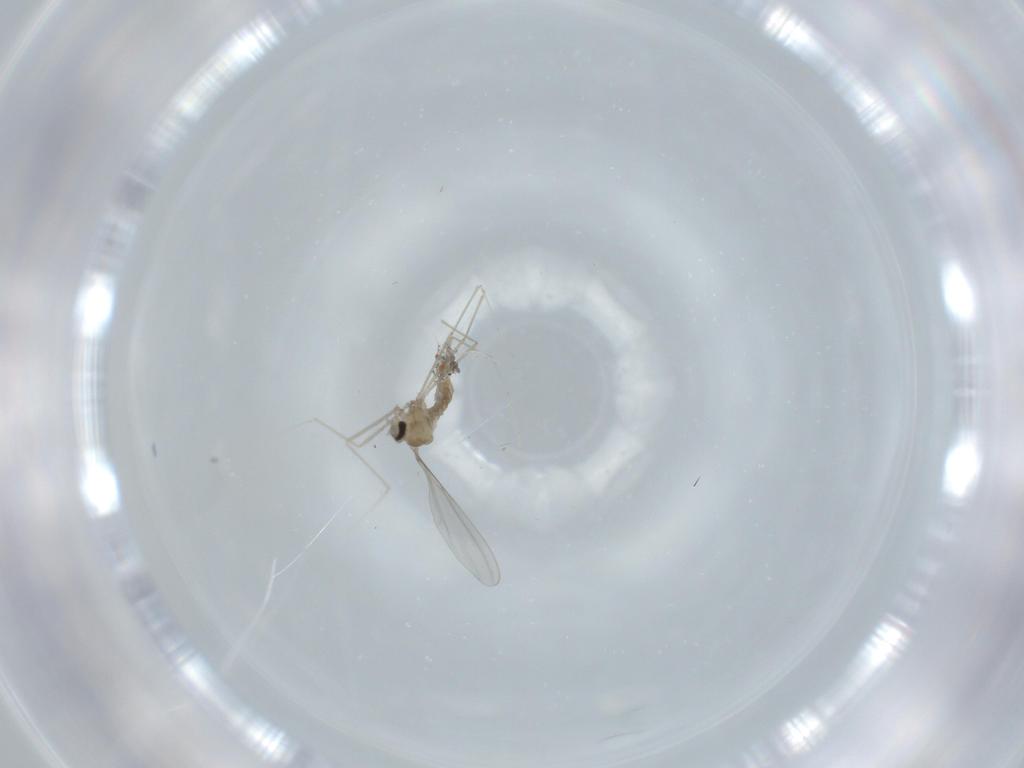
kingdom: Animalia
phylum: Arthropoda
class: Insecta
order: Diptera
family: Cecidomyiidae
